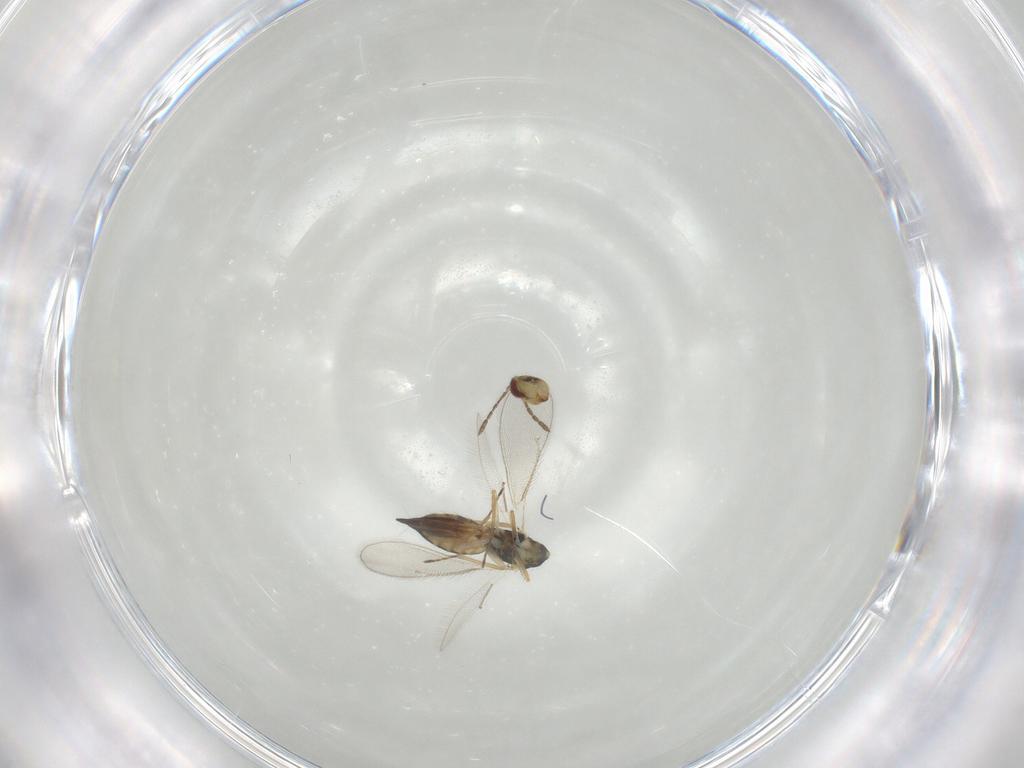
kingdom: Animalia
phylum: Arthropoda
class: Insecta
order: Hymenoptera
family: Eulophidae
